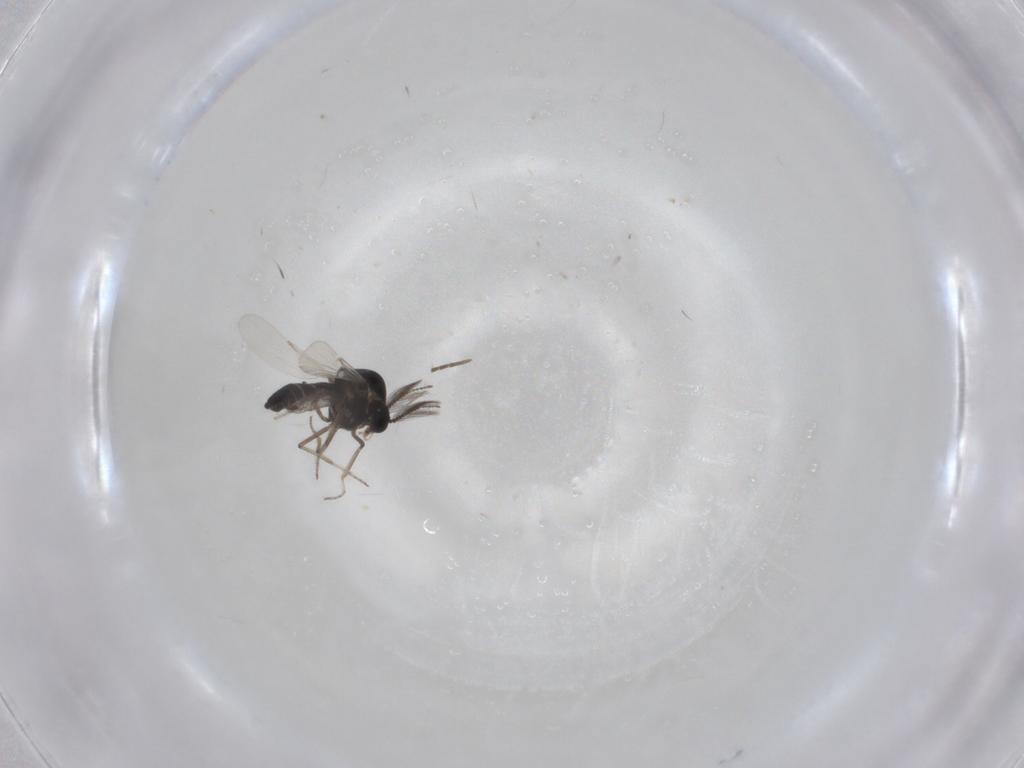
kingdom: Animalia
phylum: Arthropoda
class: Insecta
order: Diptera
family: Ceratopogonidae
